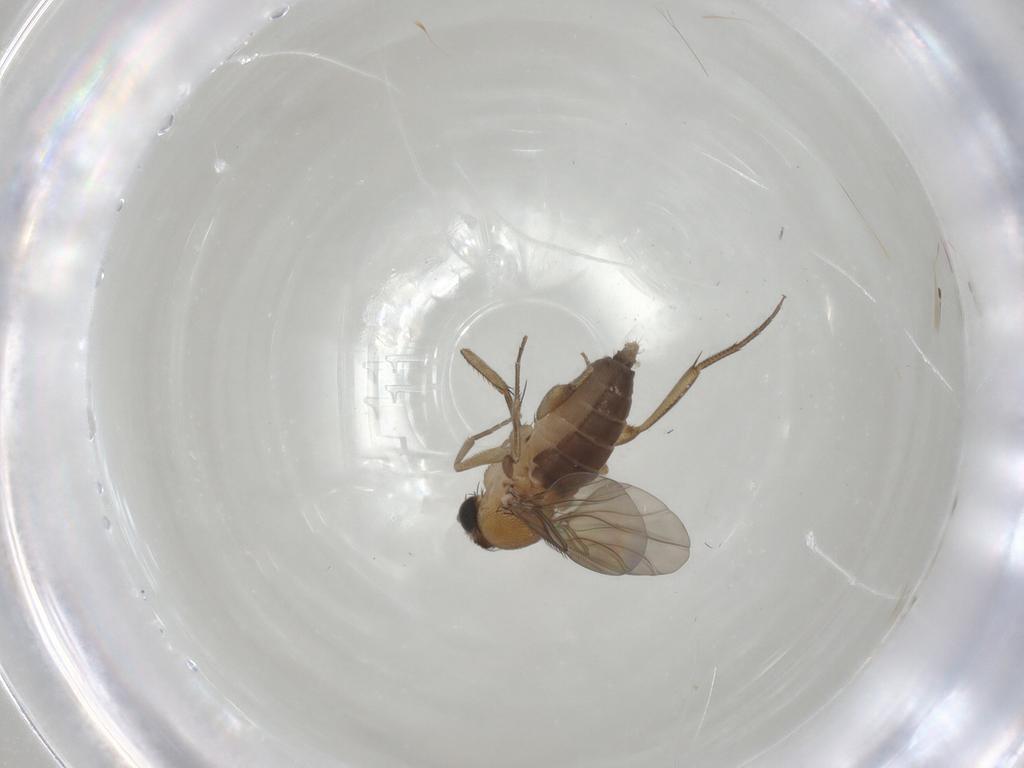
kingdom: Animalia
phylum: Arthropoda
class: Insecta
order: Diptera
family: Phoridae
